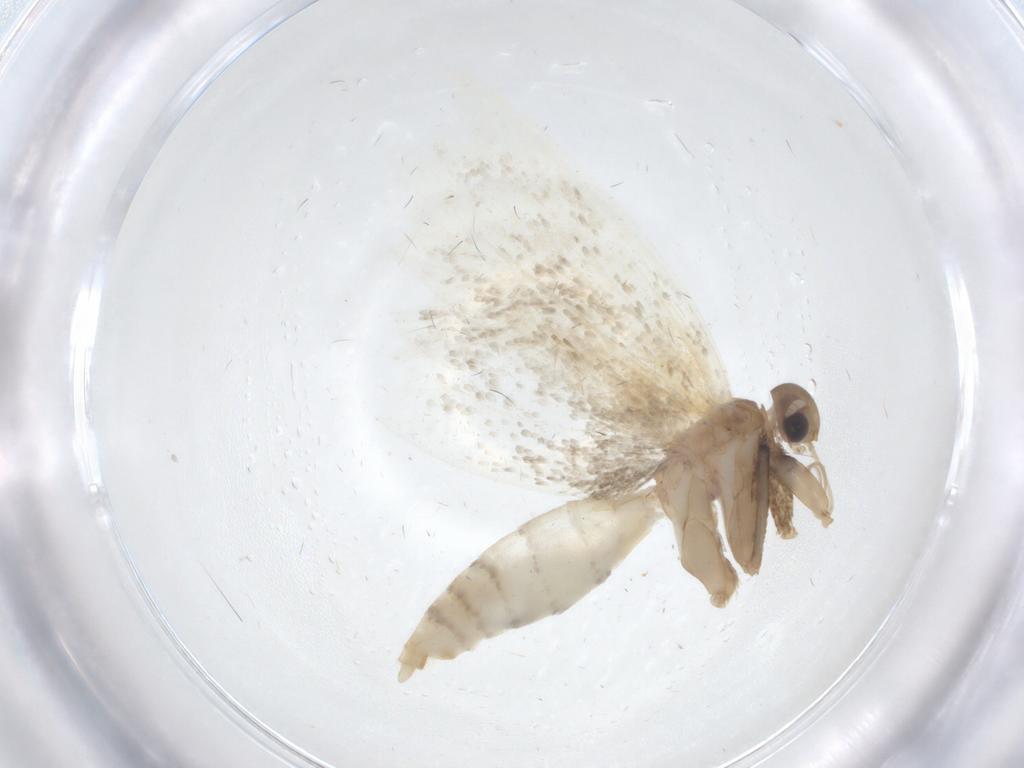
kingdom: Animalia
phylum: Arthropoda
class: Insecta
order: Lepidoptera
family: Oecophoridae
